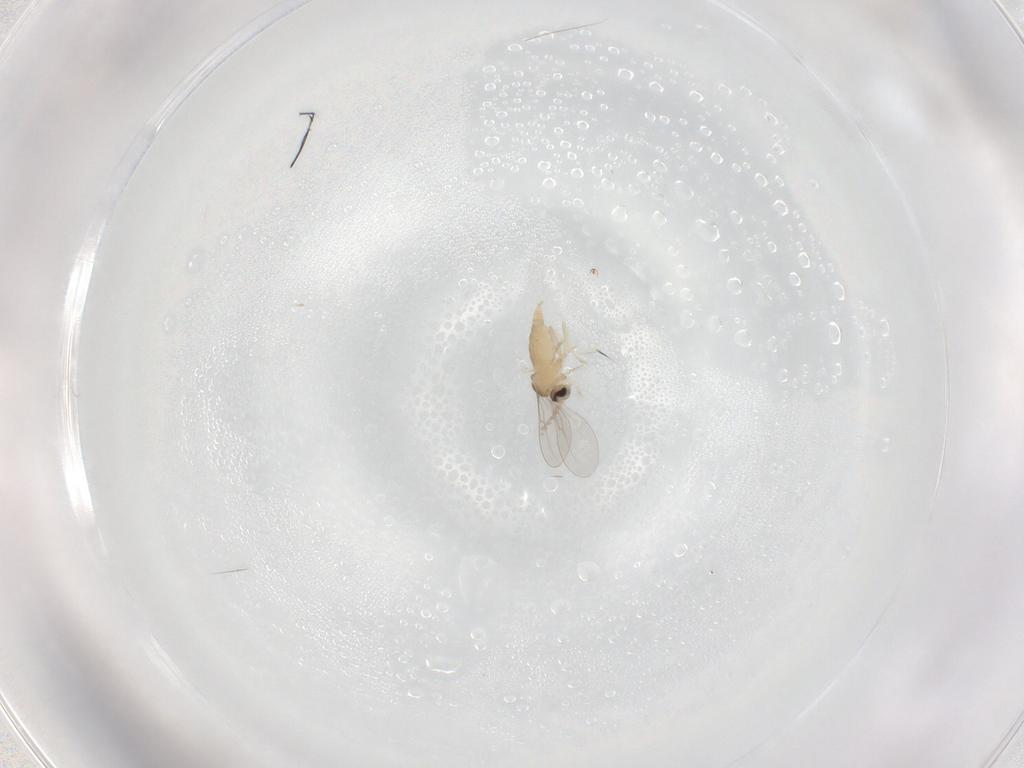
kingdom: Animalia
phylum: Arthropoda
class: Insecta
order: Diptera
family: Cecidomyiidae
